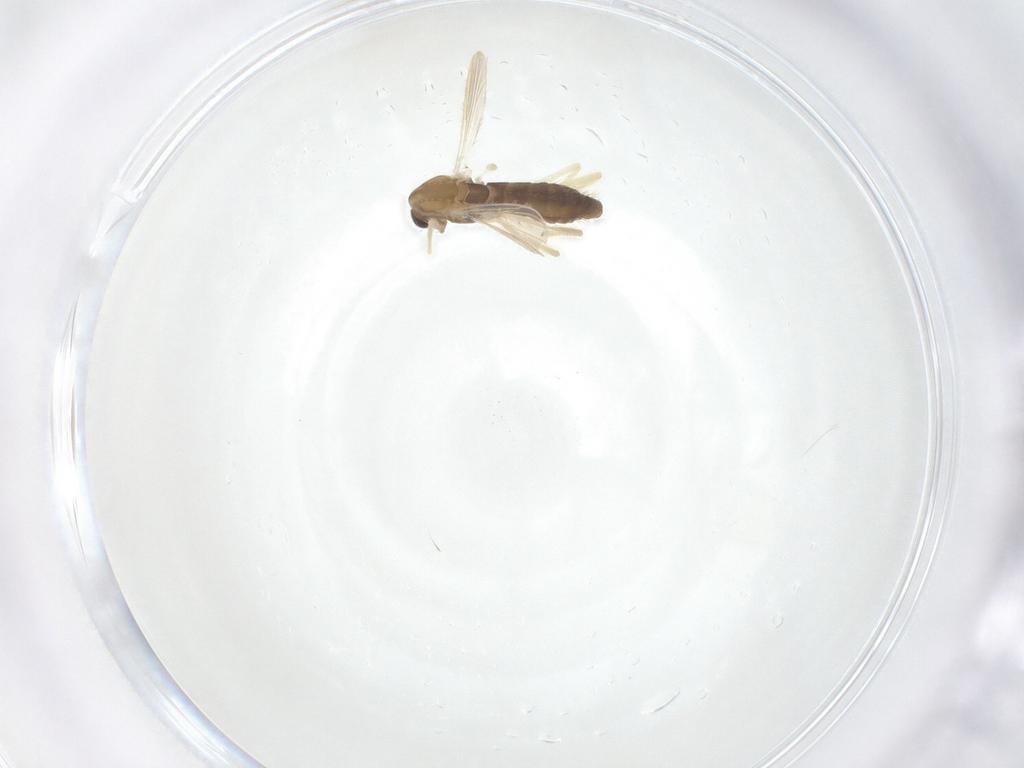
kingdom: Animalia
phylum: Arthropoda
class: Insecta
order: Diptera
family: Chironomidae
